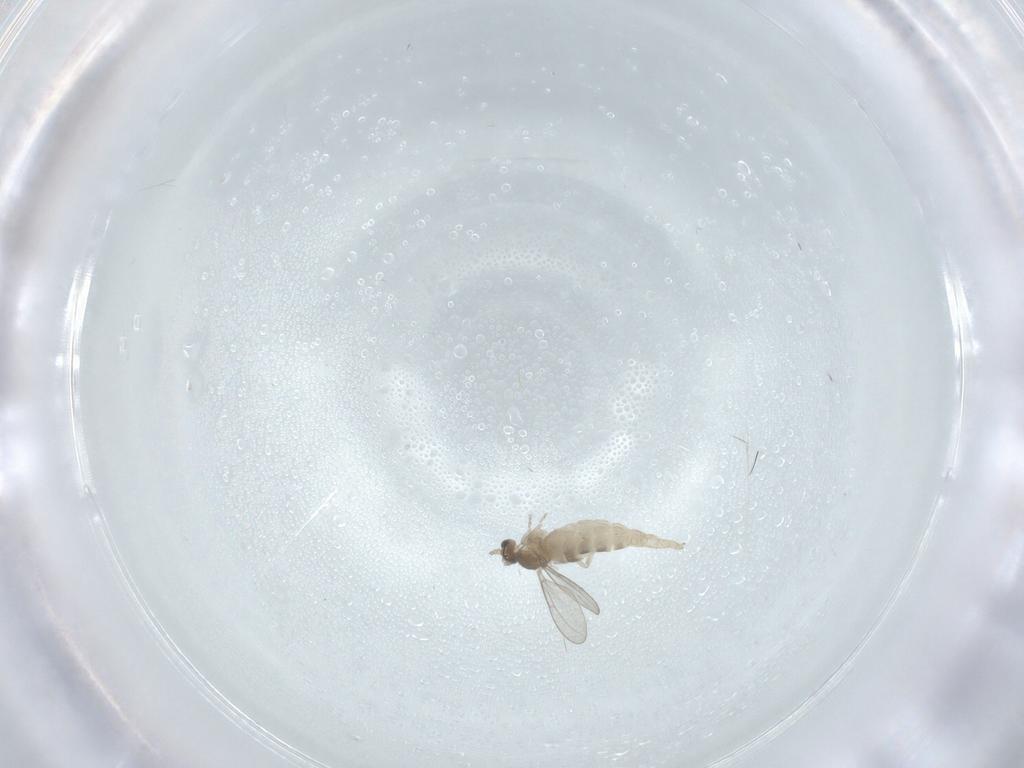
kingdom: Animalia
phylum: Arthropoda
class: Insecta
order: Diptera
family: Cecidomyiidae
